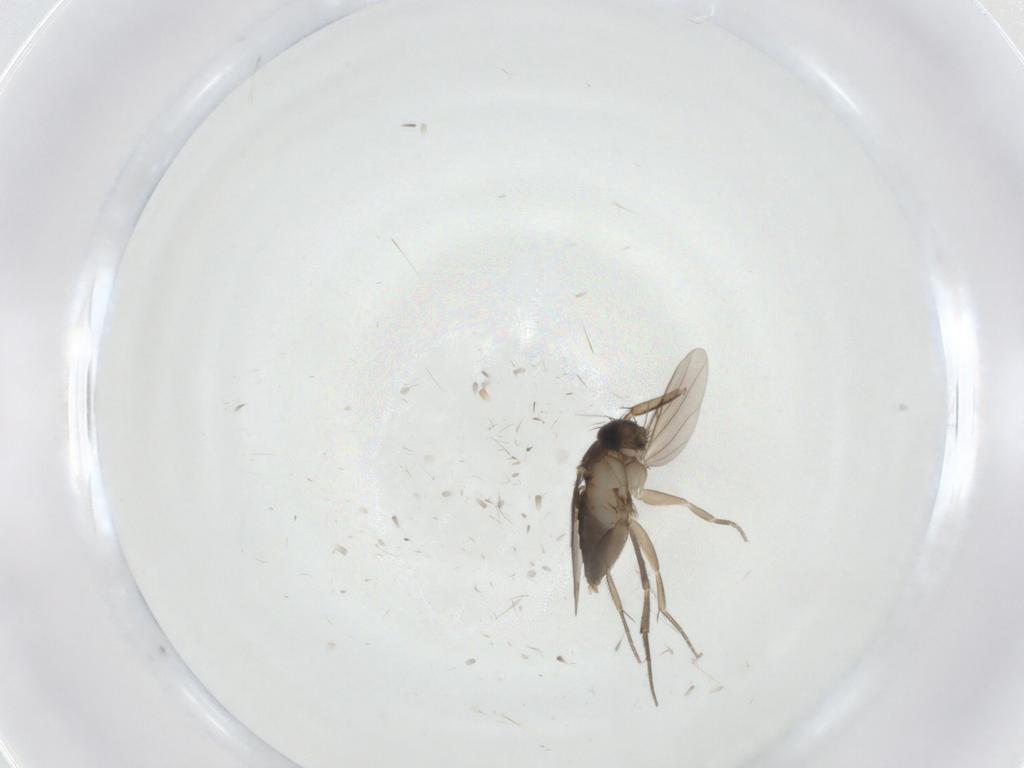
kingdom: Animalia
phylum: Arthropoda
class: Insecta
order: Diptera
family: Phoridae
